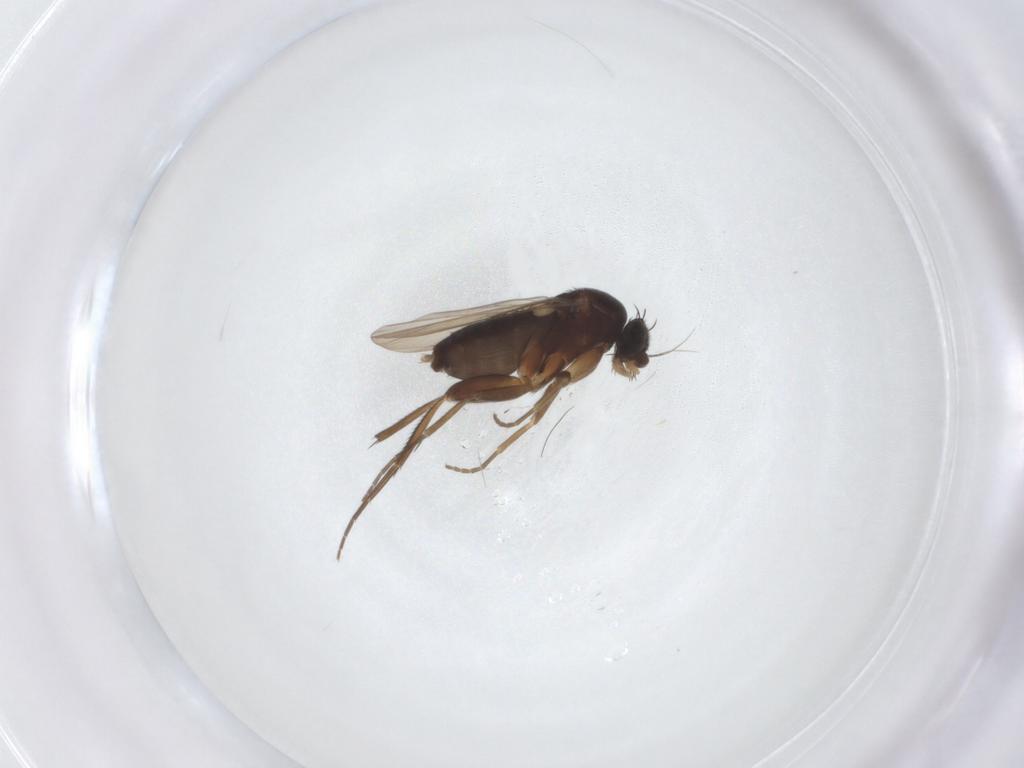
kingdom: Animalia
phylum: Arthropoda
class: Insecta
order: Diptera
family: Phoridae
